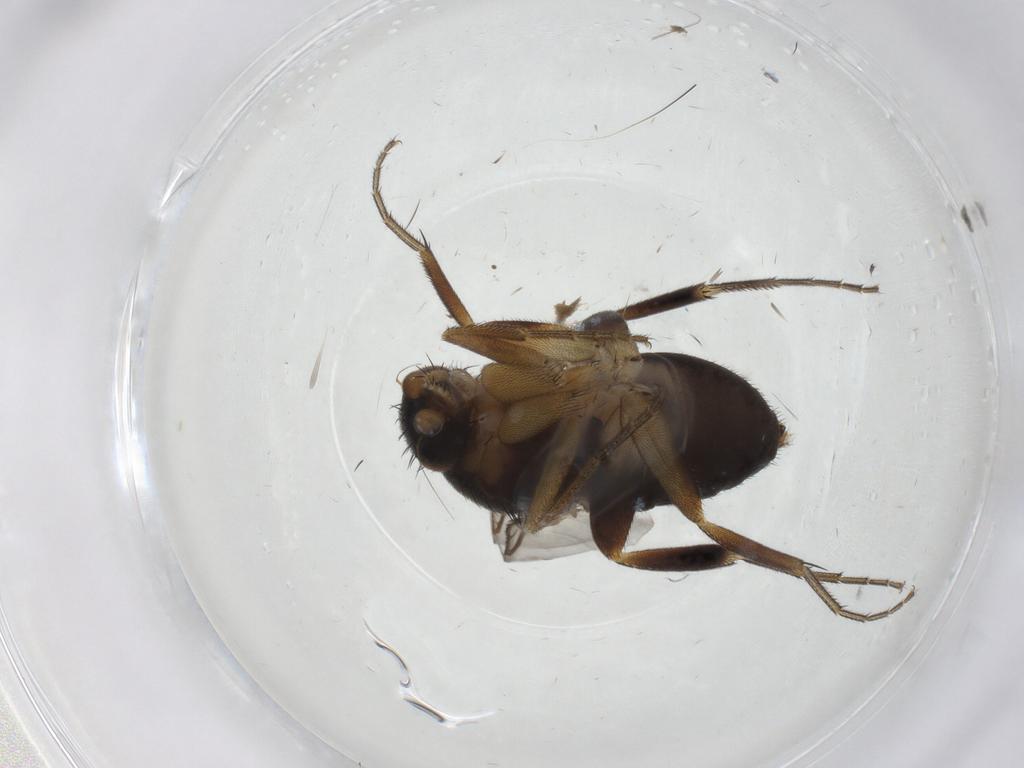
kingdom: Animalia
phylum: Arthropoda
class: Insecta
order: Diptera
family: Phoridae
